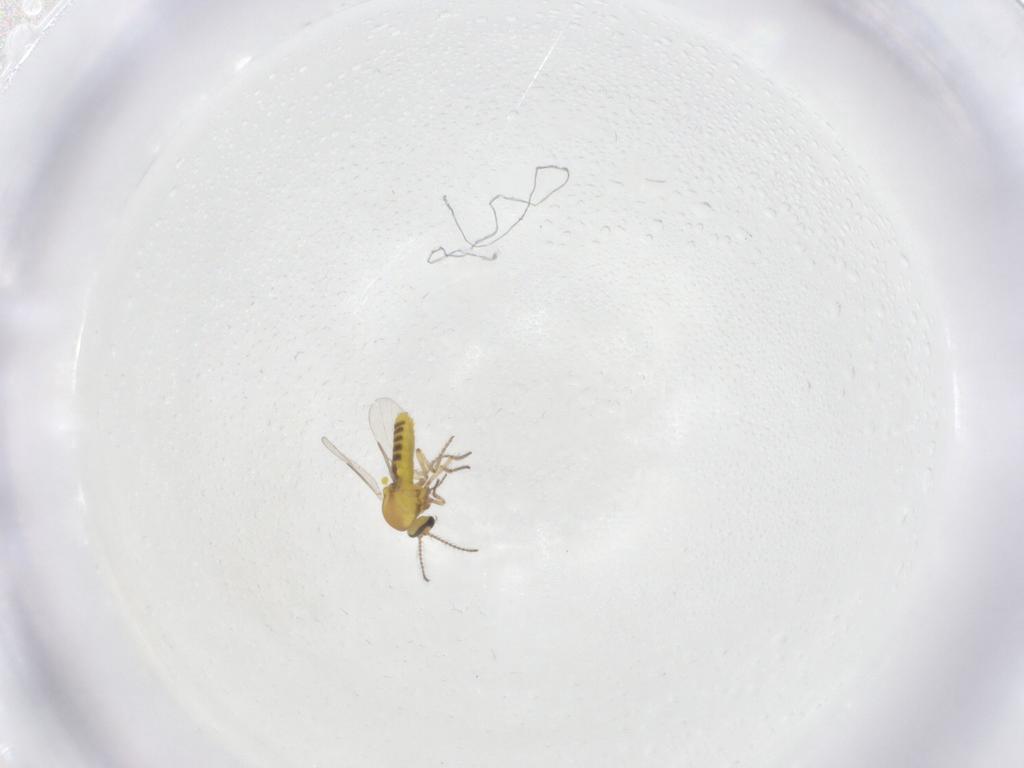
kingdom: Animalia
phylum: Arthropoda
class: Insecta
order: Diptera
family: Ceratopogonidae
